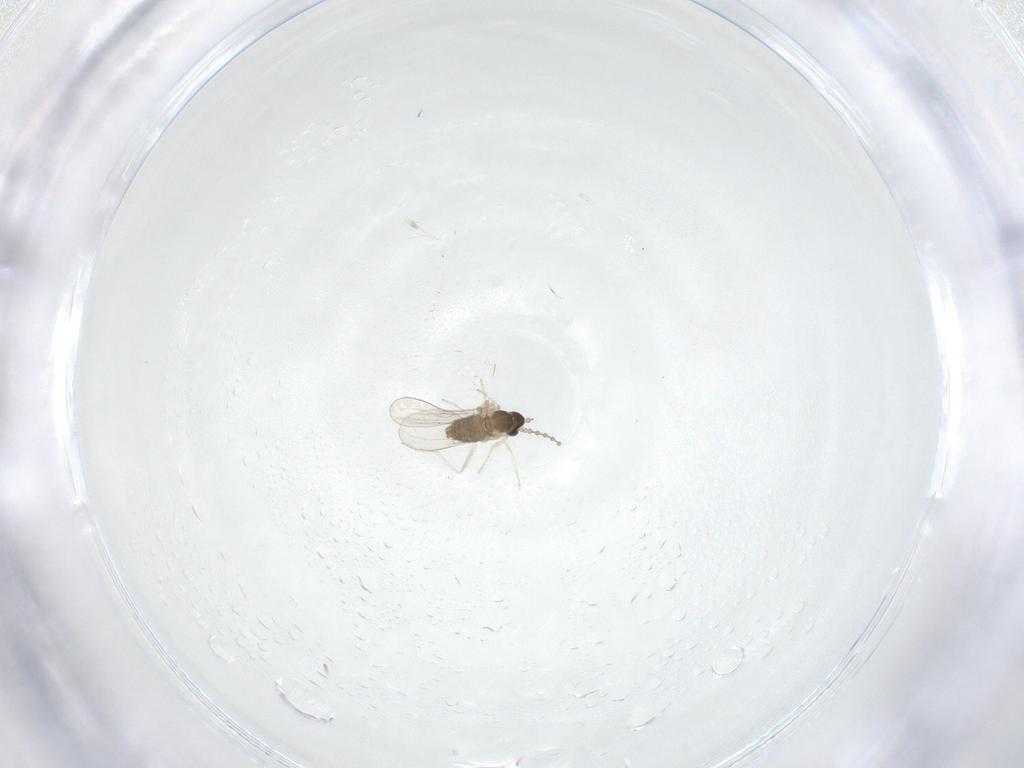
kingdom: Animalia
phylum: Arthropoda
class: Insecta
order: Diptera
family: Cecidomyiidae
